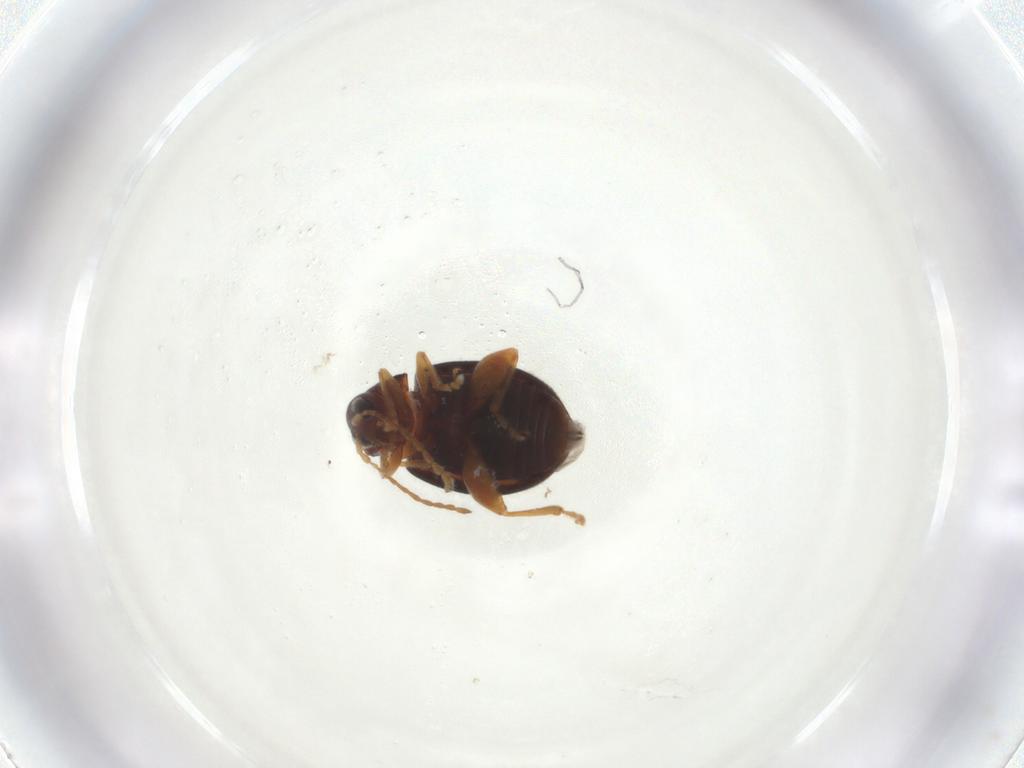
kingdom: Animalia
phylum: Arthropoda
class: Insecta
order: Coleoptera
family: Chrysomelidae
